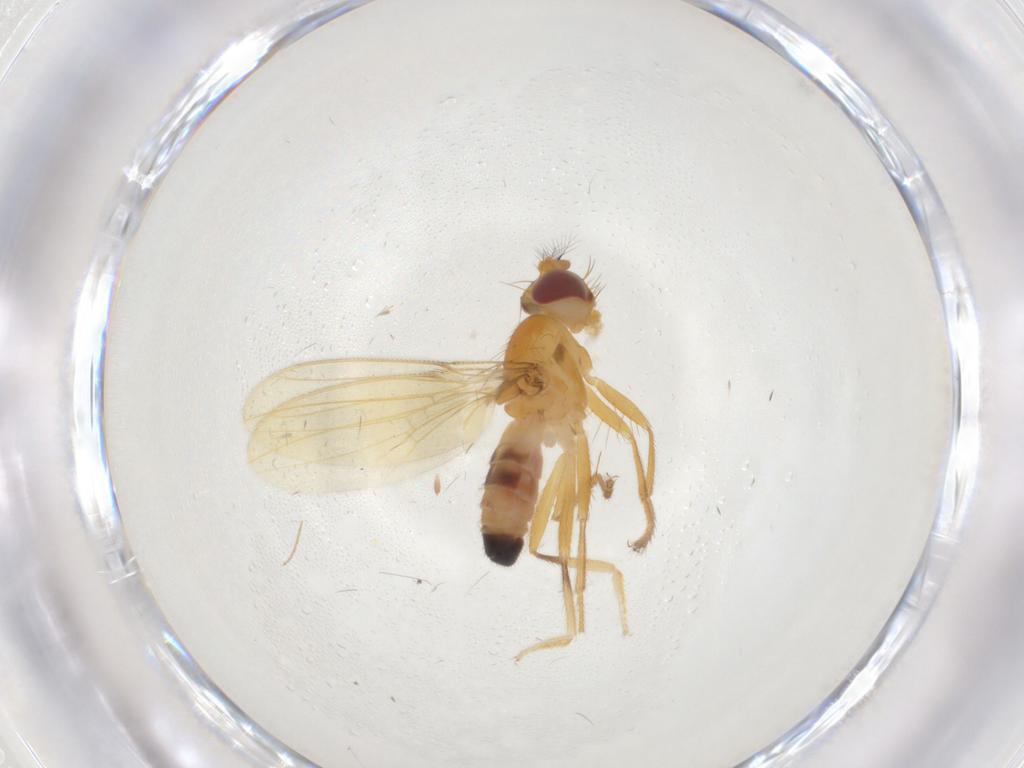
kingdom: Animalia
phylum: Arthropoda
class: Insecta
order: Diptera
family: Periscelididae
